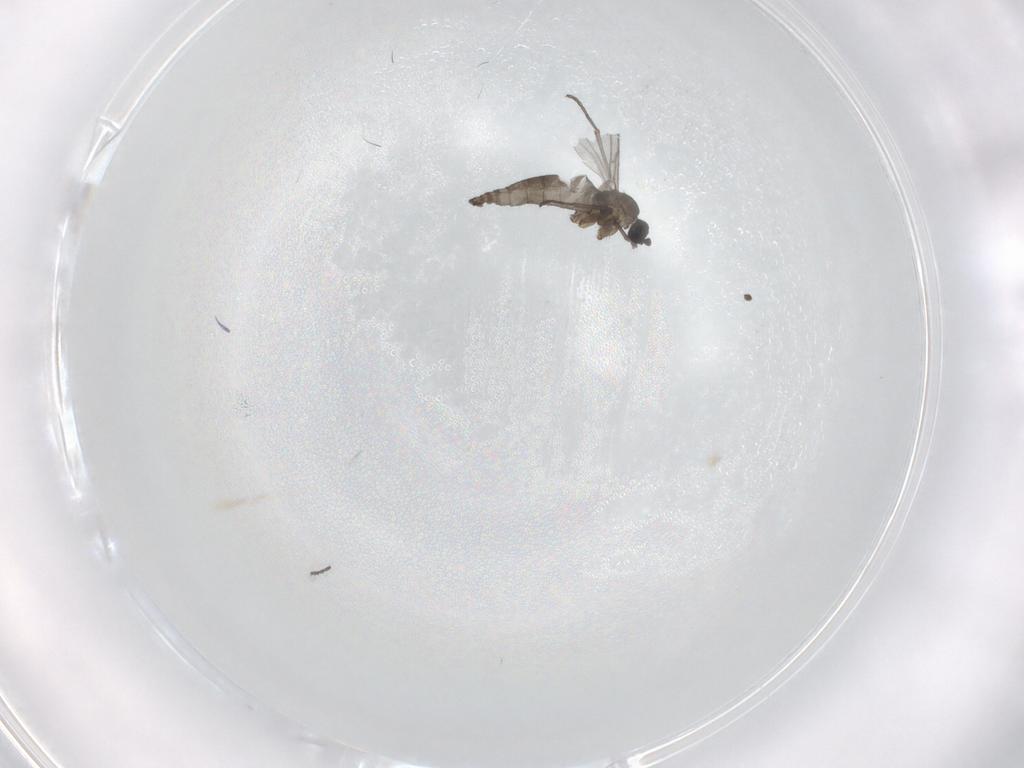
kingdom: Animalia
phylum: Arthropoda
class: Insecta
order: Diptera
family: Sciaridae
